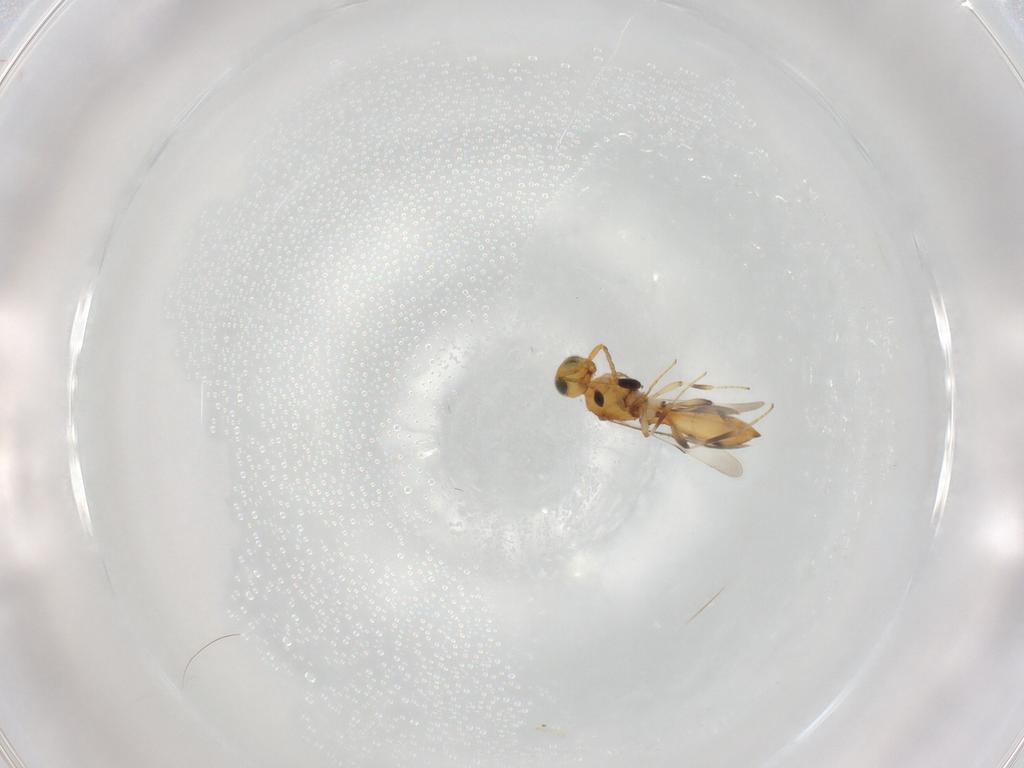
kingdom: Animalia
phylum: Arthropoda
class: Insecta
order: Hymenoptera
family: Scelionidae
